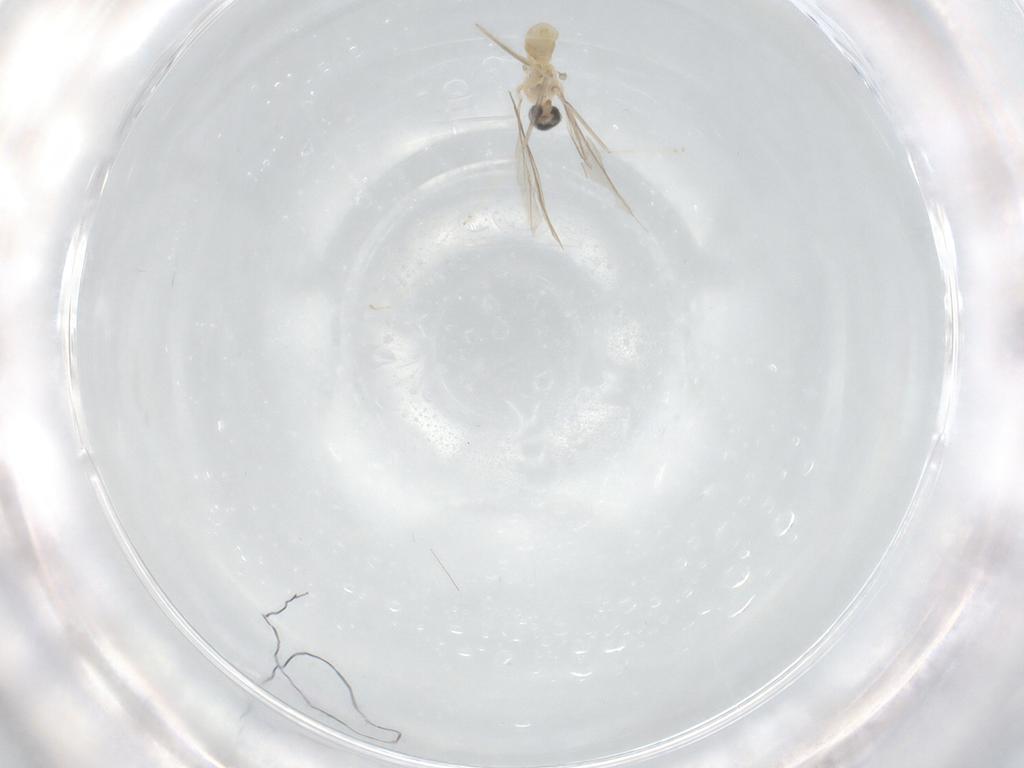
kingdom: Animalia
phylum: Arthropoda
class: Insecta
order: Diptera
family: Cecidomyiidae
